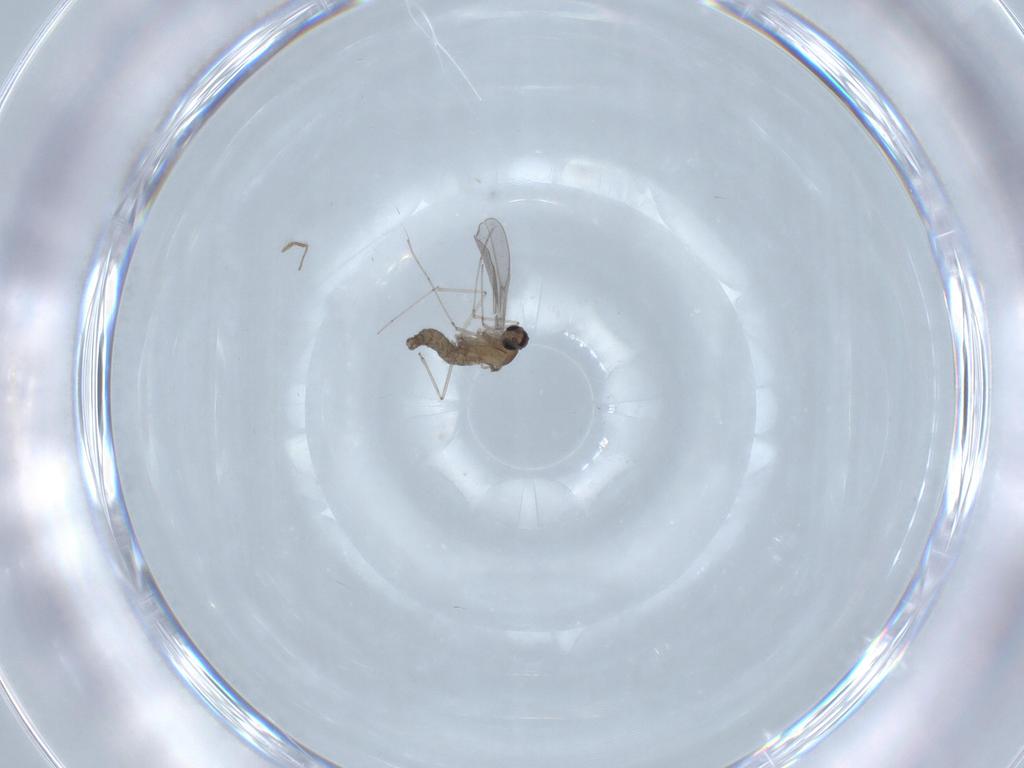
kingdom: Animalia
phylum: Arthropoda
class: Insecta
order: Diptera
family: Cecidomyiidae
